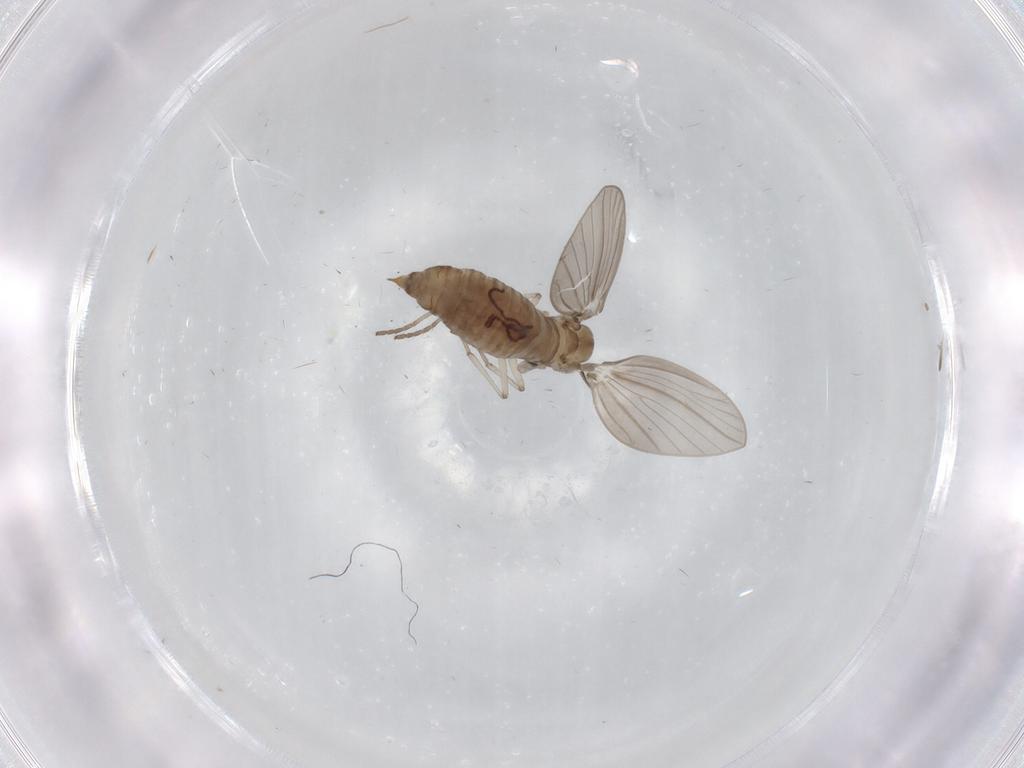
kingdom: Animalia
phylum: Arthropoda
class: Insecta
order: Diptera
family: Psychodidae
